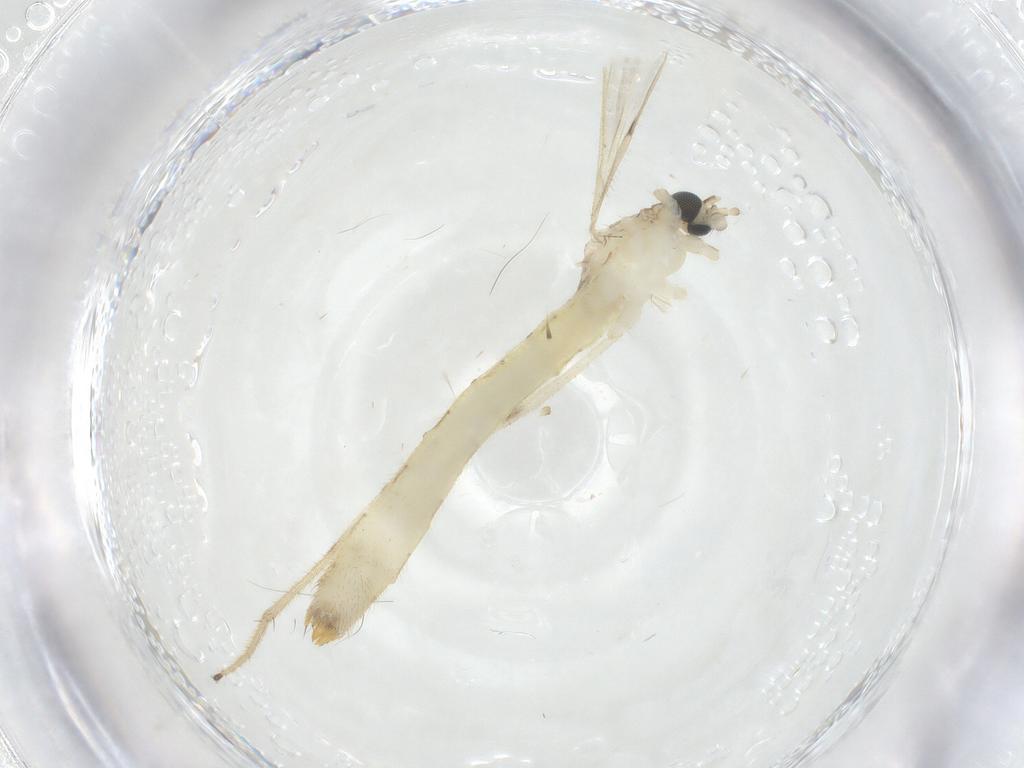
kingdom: Animalia
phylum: Arthropoda
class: Insecta
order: Diptera
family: Limoniidae
